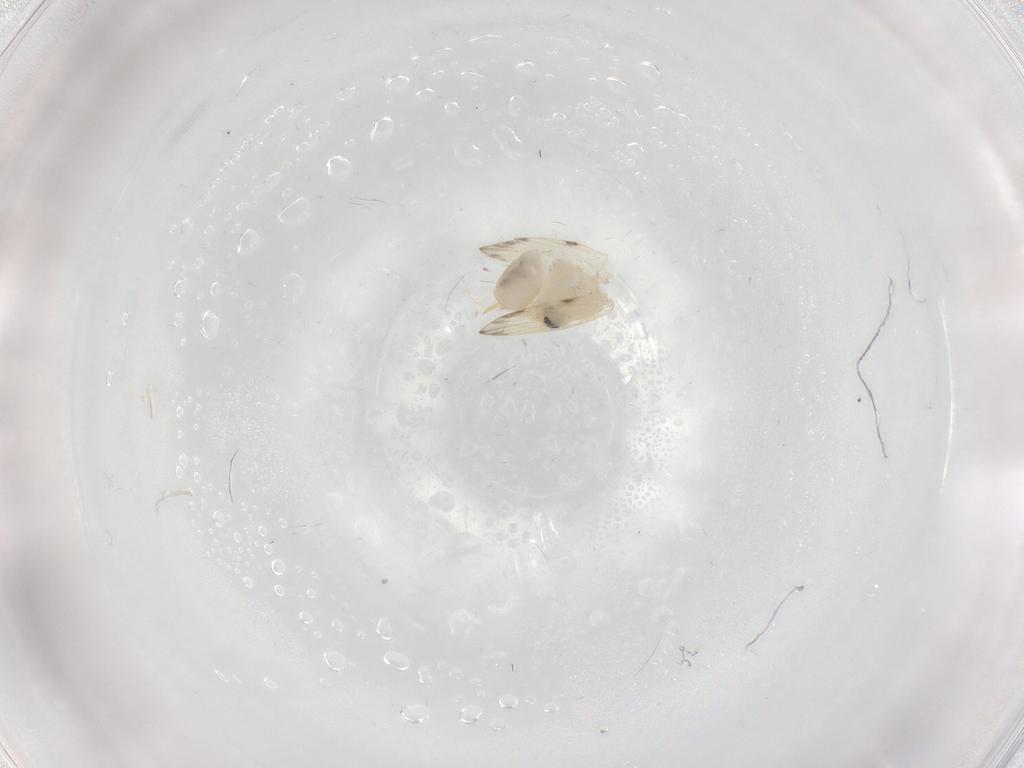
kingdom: Animalia
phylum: Arthropoda
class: Insecta
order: Diptera
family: Psychodidae
